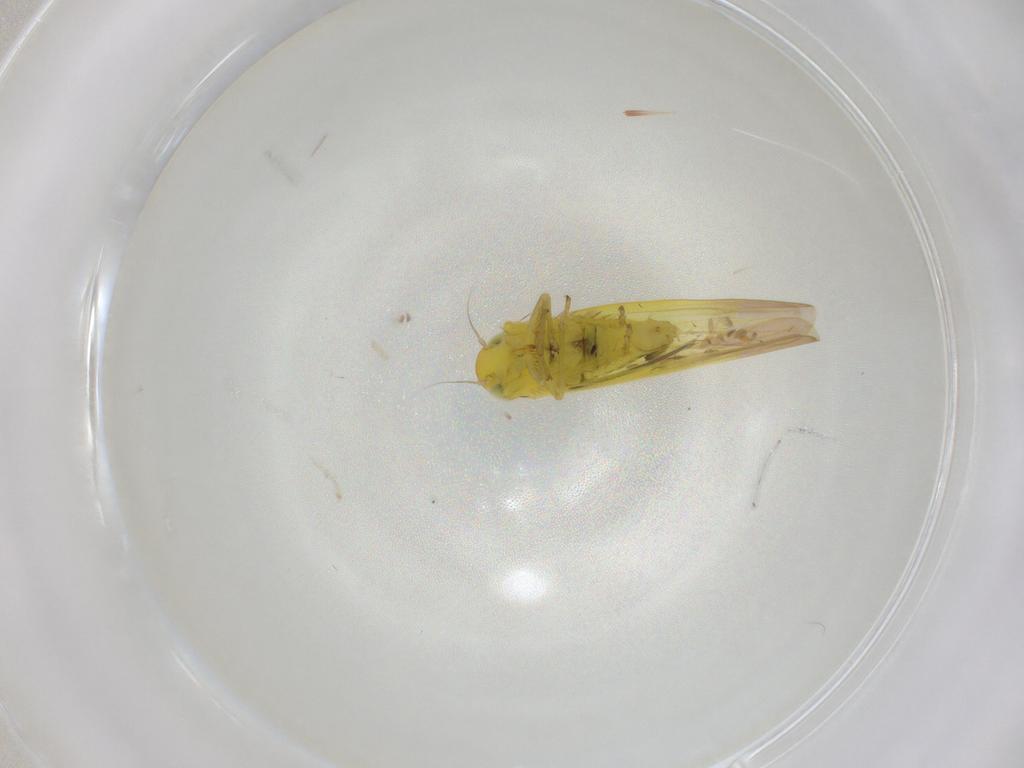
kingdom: Animalia
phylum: Arthropoda
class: Insecta
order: Hemiptera
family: Cicadellidae
